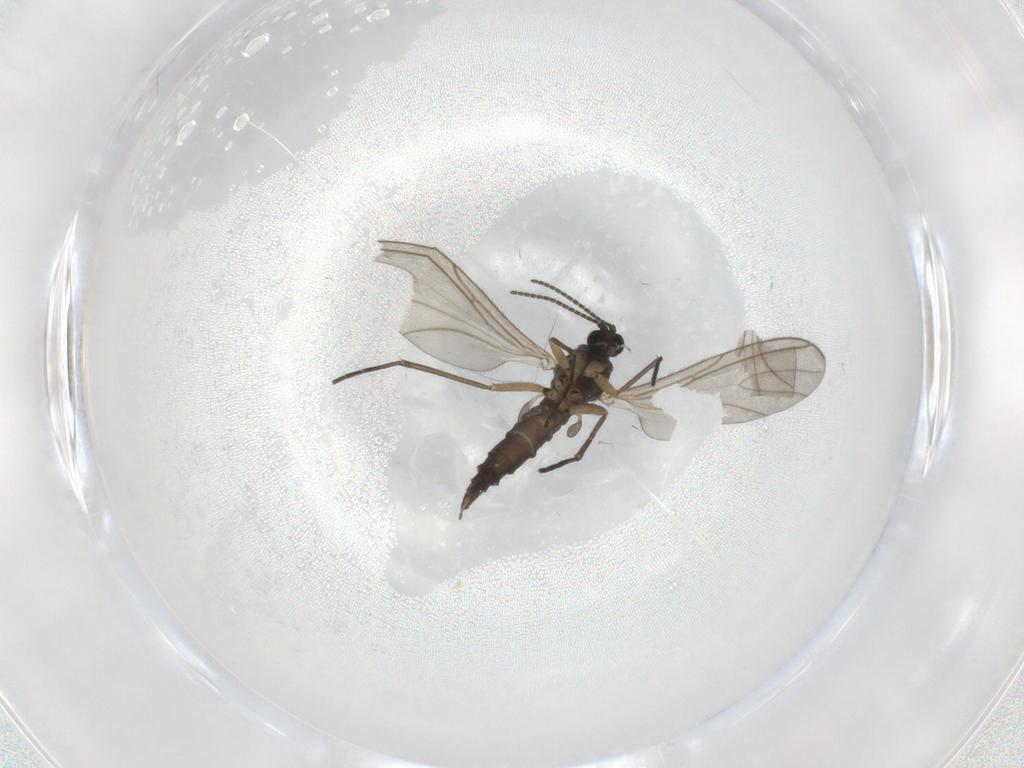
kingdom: Animalia
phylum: Arthropoda
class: Insecta
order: Diptera
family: Sciaridae
